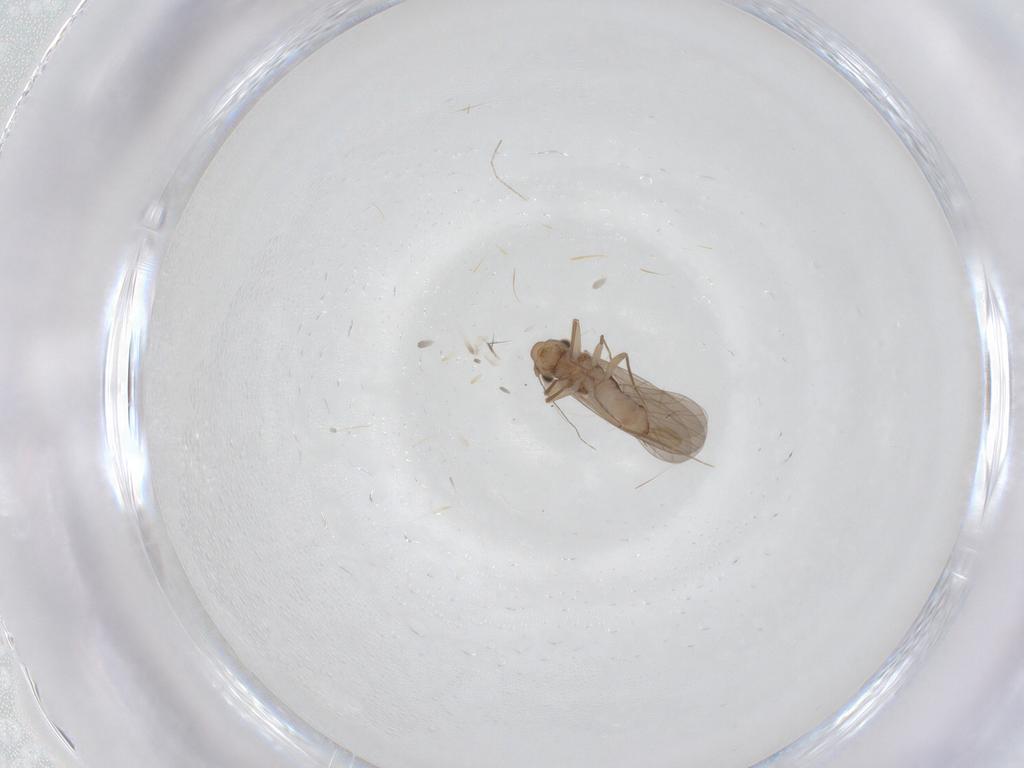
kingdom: Animalia
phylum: Arthropoda
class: Insecta
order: Psocodea
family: Lepidopsocidae
